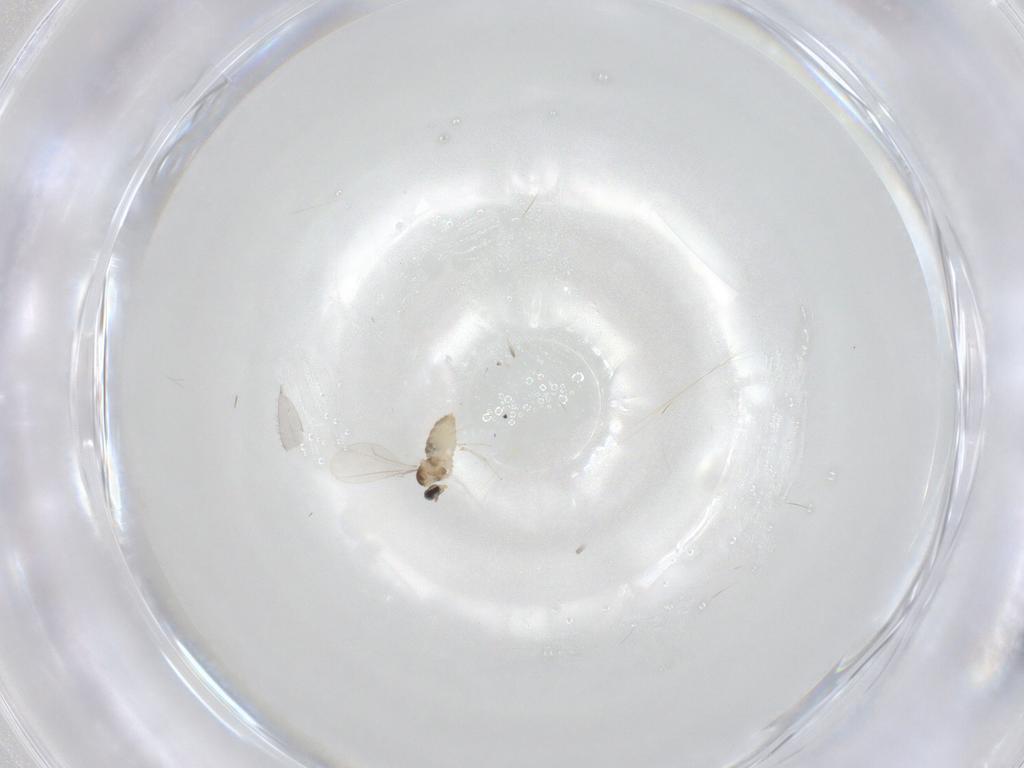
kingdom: Animalia
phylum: Arthropoda
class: Insecta
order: Diptera
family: Cecidomyiidae
